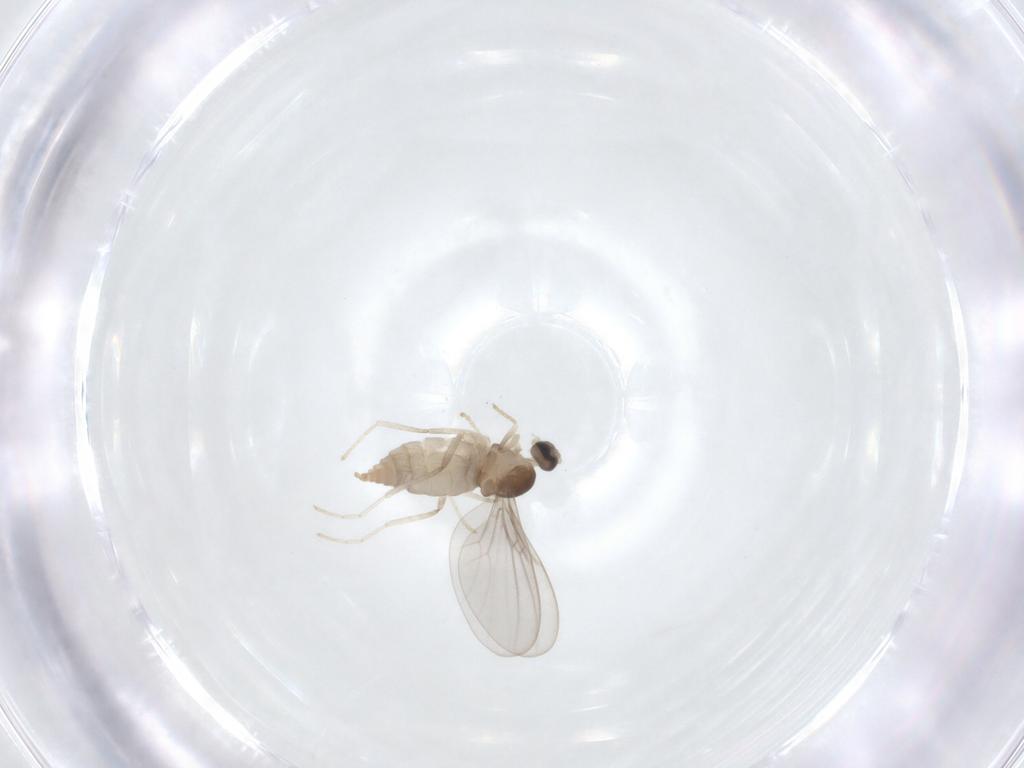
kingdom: Animalia
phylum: Arthropoda
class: Insecta
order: Diptera
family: Cecidomyiidae
